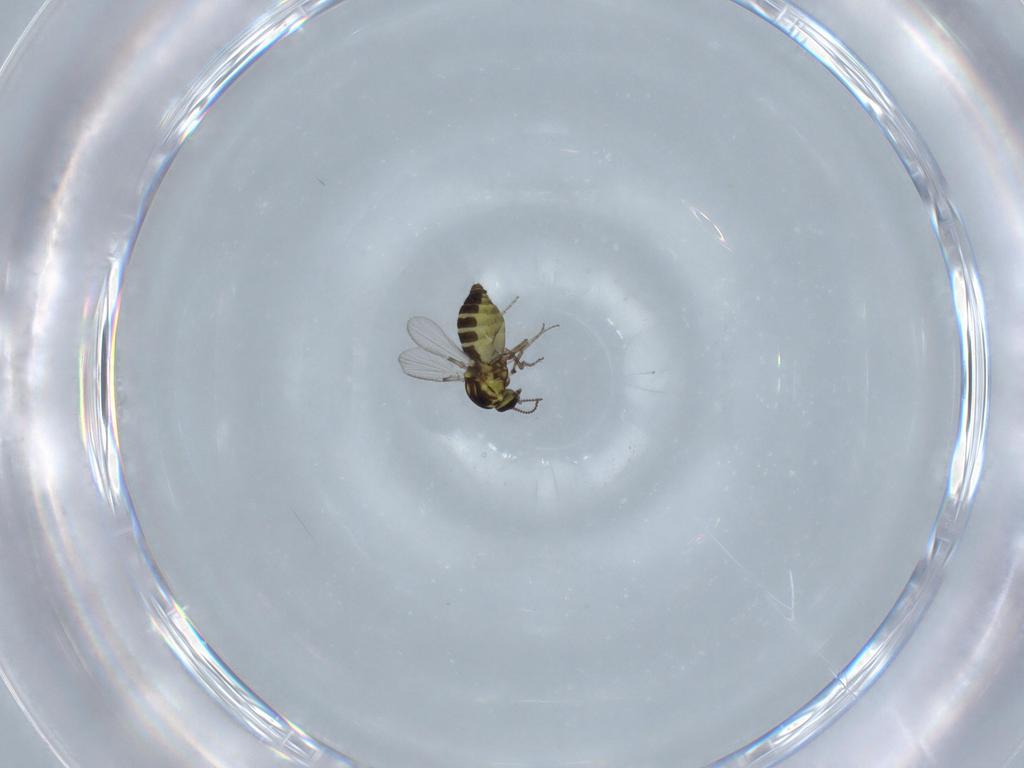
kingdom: Animalia
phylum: Arthropoda
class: Insecta
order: Diptera
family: Ceratopogonidae
